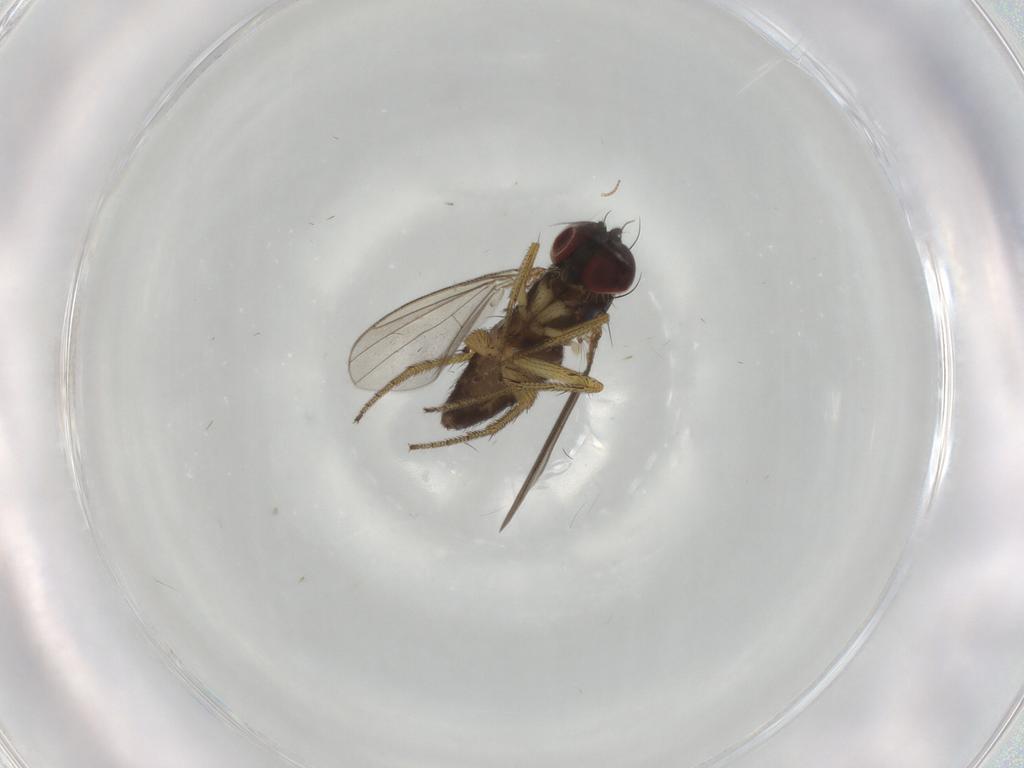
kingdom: Animalia
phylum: Arthropoda
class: Insecta
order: Diptera
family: Dolichopodidae
